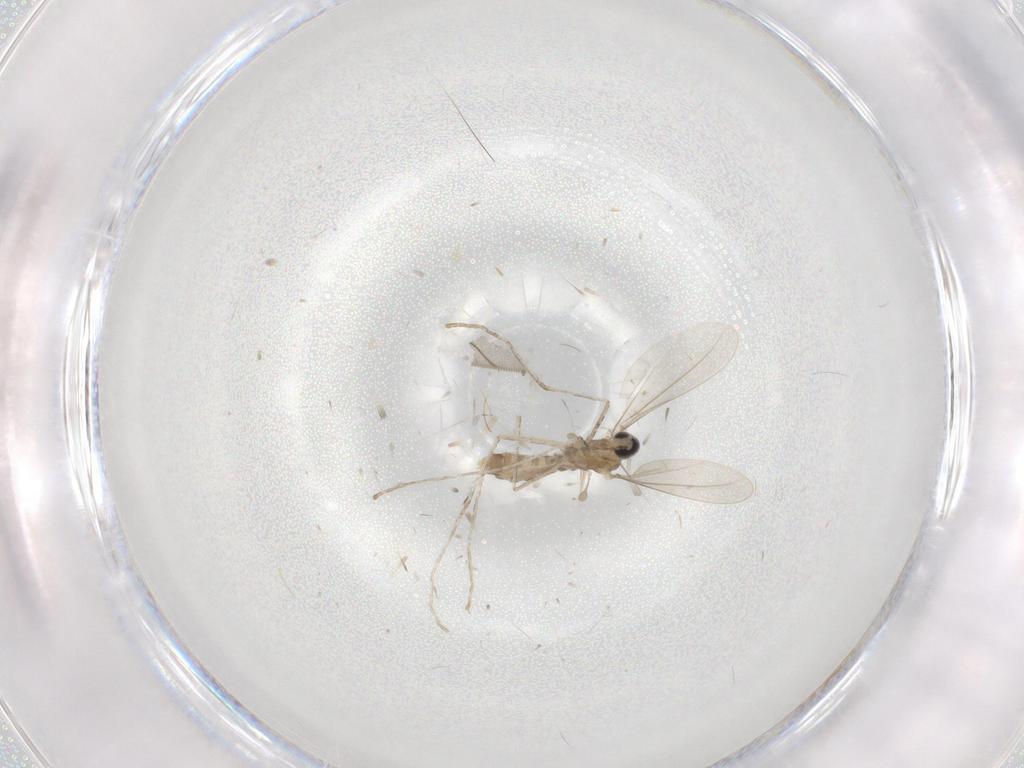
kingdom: Animalia
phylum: Arthropoda
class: Insecta
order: Diptera
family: Cecidomyiidae
